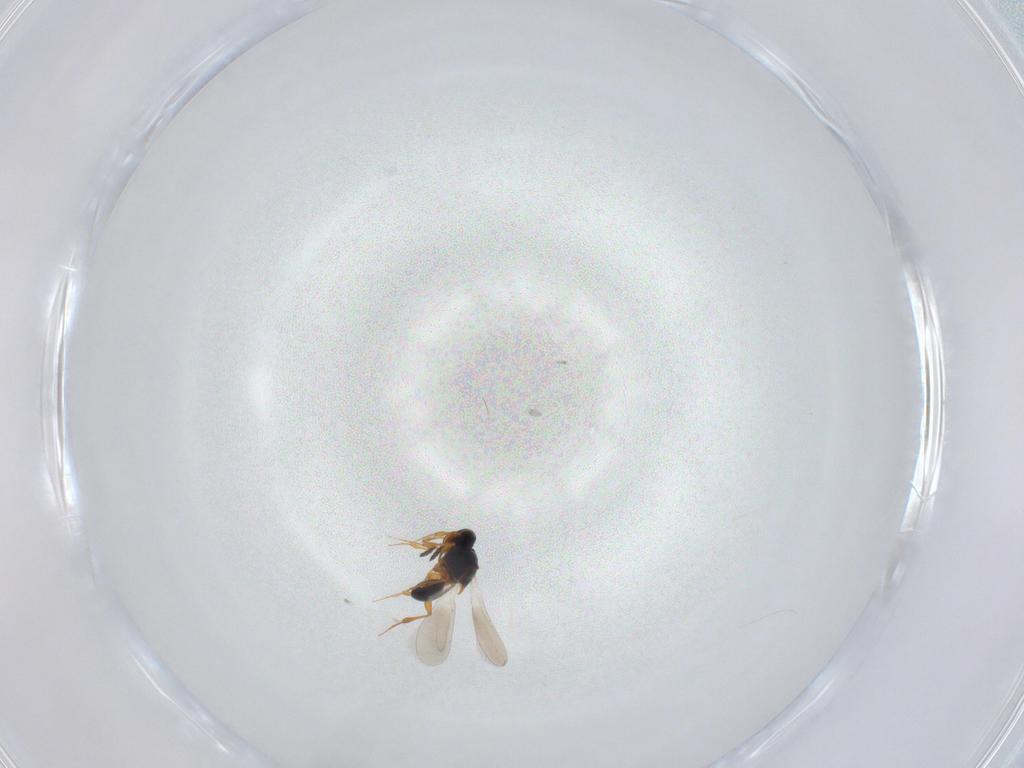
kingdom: Animalia
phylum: Arthropoda
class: Insecta
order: Hymenoptera
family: Platygastridae
